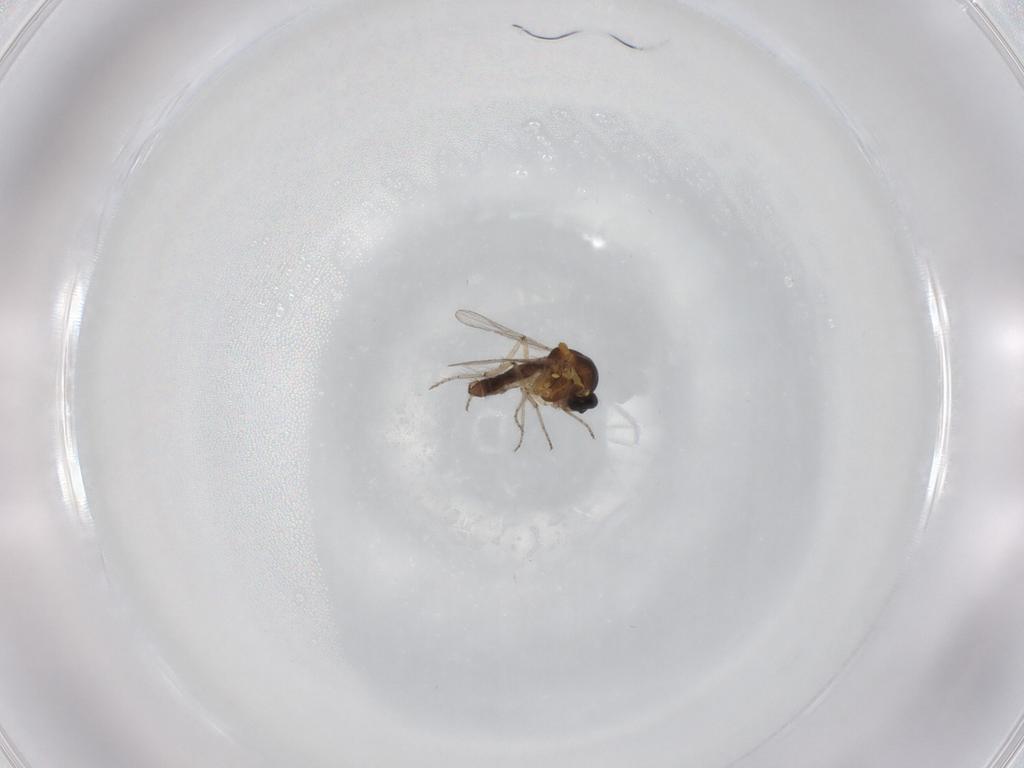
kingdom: Animalia
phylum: Arthropoda
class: Insecta
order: Diptera
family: Ceratopogonidae
